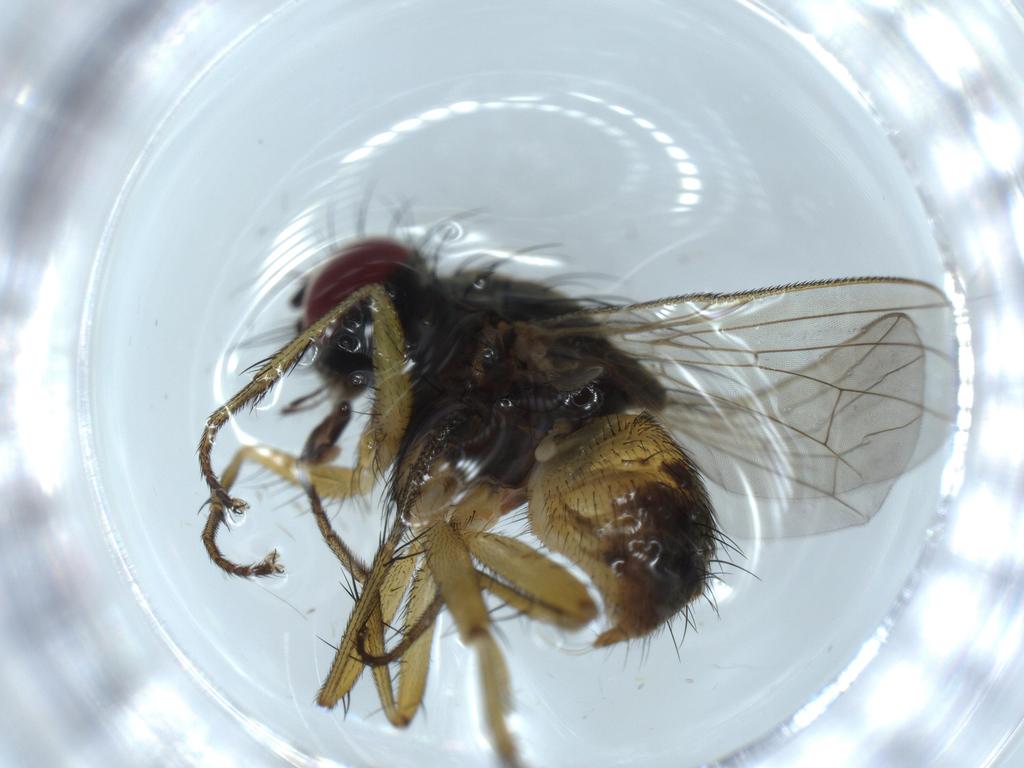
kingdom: Animalia
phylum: Arthropoda
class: Insecta
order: Diptera
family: Muscidae
